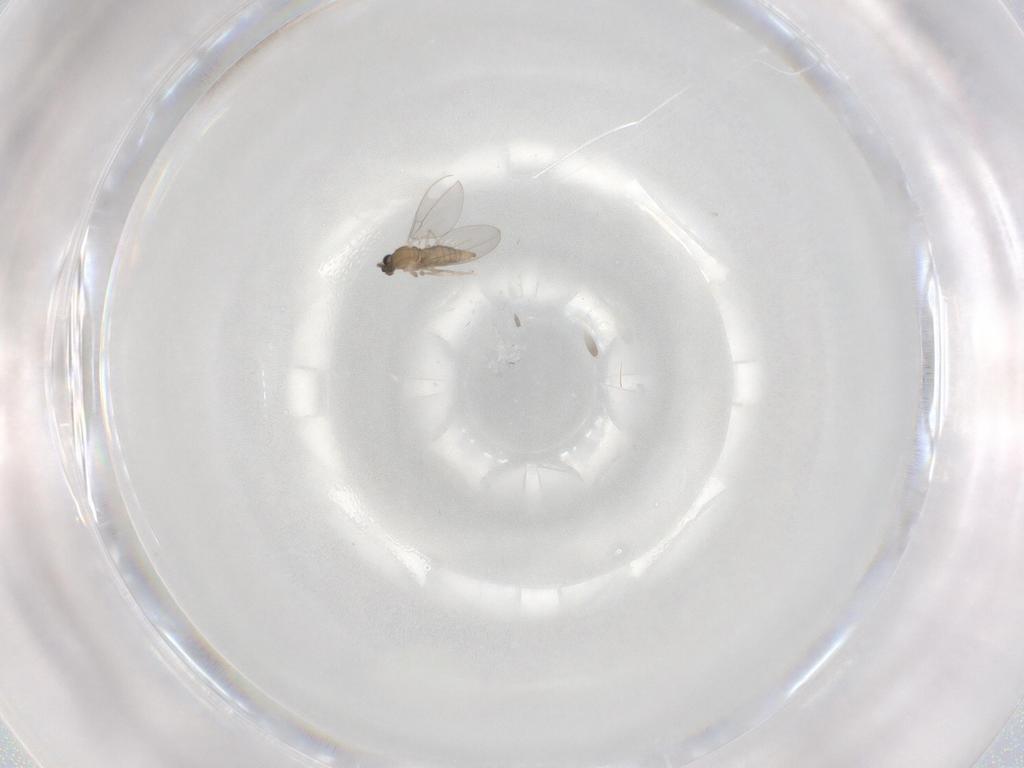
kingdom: Animalia
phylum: Arthropoda
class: Insecta
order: Diptera
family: Cecidomyiidae
